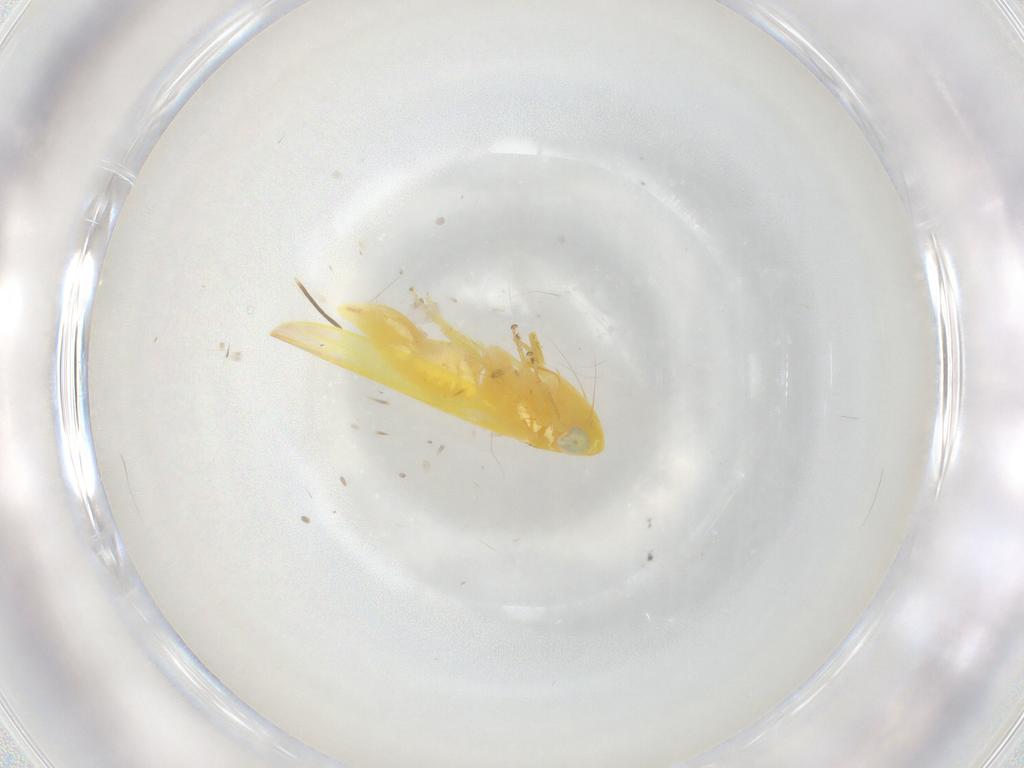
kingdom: Animalia
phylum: Arthropoda
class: Insecta
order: Hemiptera
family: Cicadellidae
